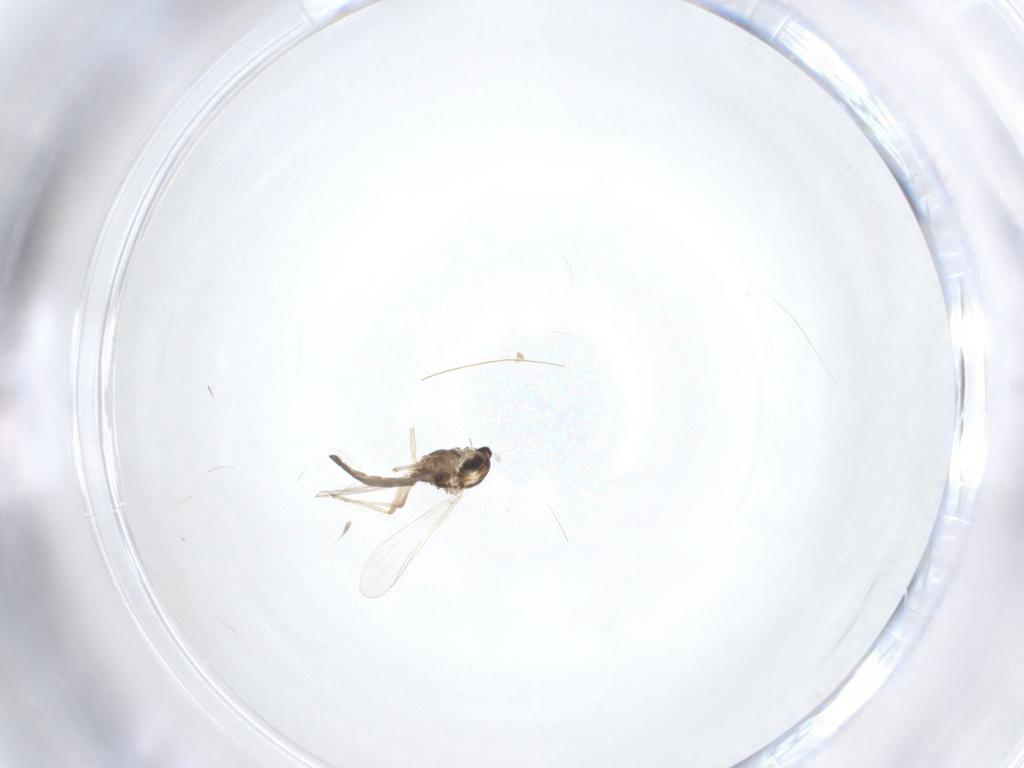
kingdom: Animalia
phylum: Arthropoda
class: Insecta
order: Diptera
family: Chironomidae
